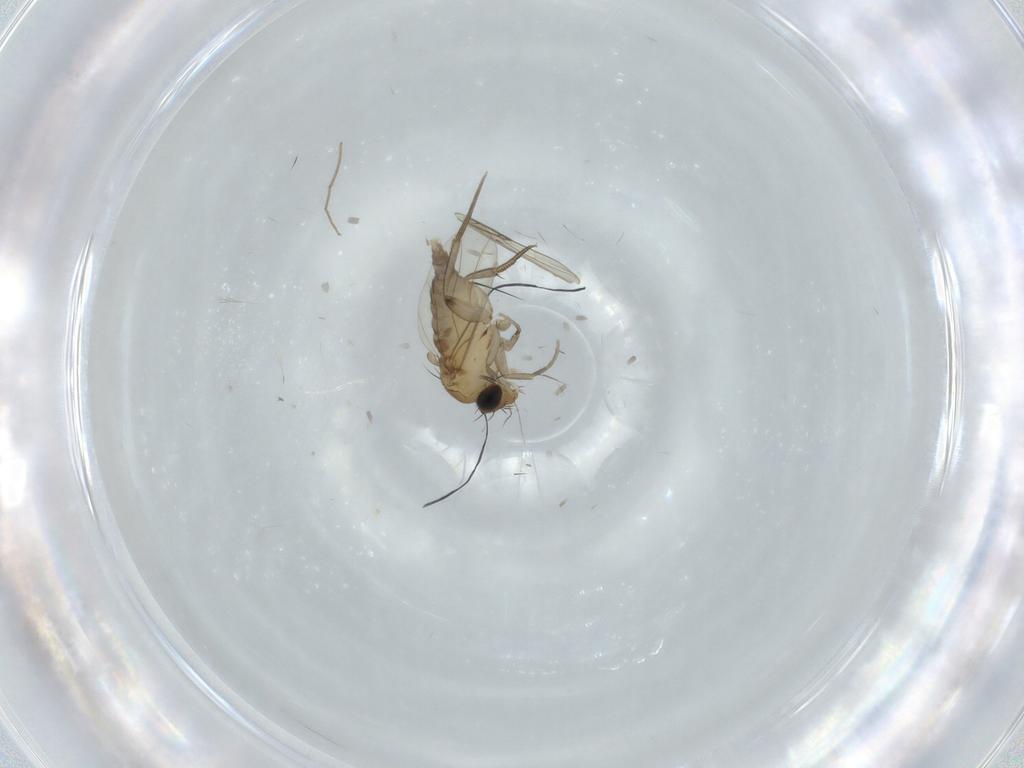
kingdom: Animalia
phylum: Arthropoda
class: Insecta
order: Diptera
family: Phoridae
